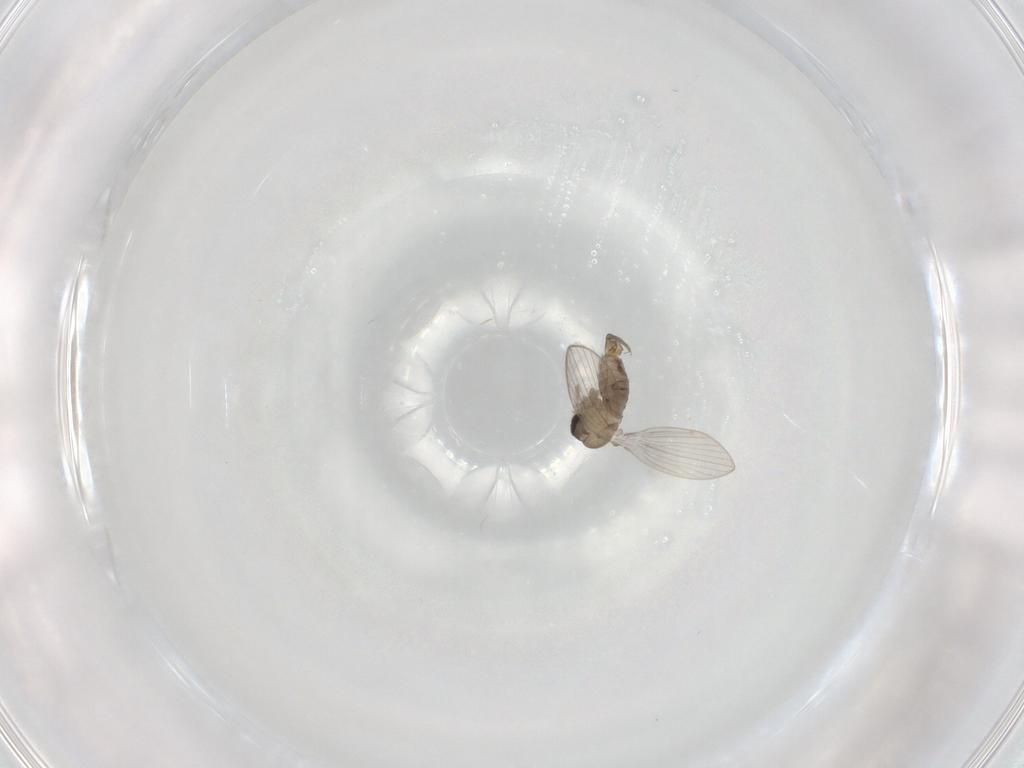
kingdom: Animalia
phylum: Arthropoda
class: Insecta
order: Diptera
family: Psychodidae
